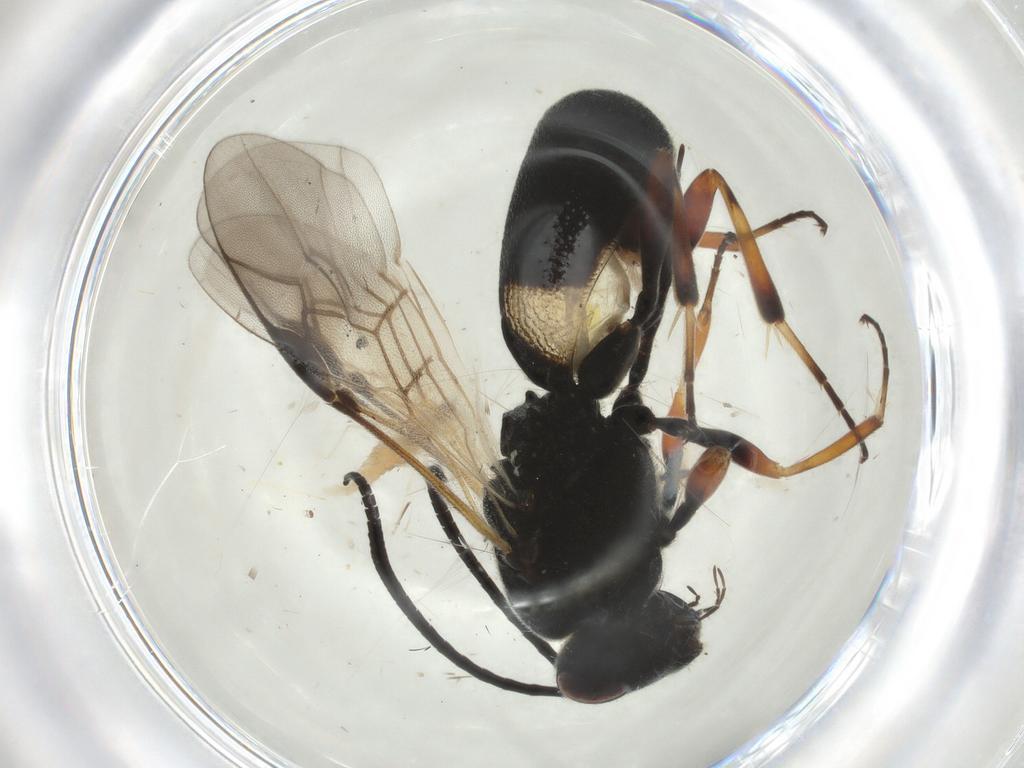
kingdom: Animalia
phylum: Arthropoda
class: Insecta
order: Hymenoptera
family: Braconidae
